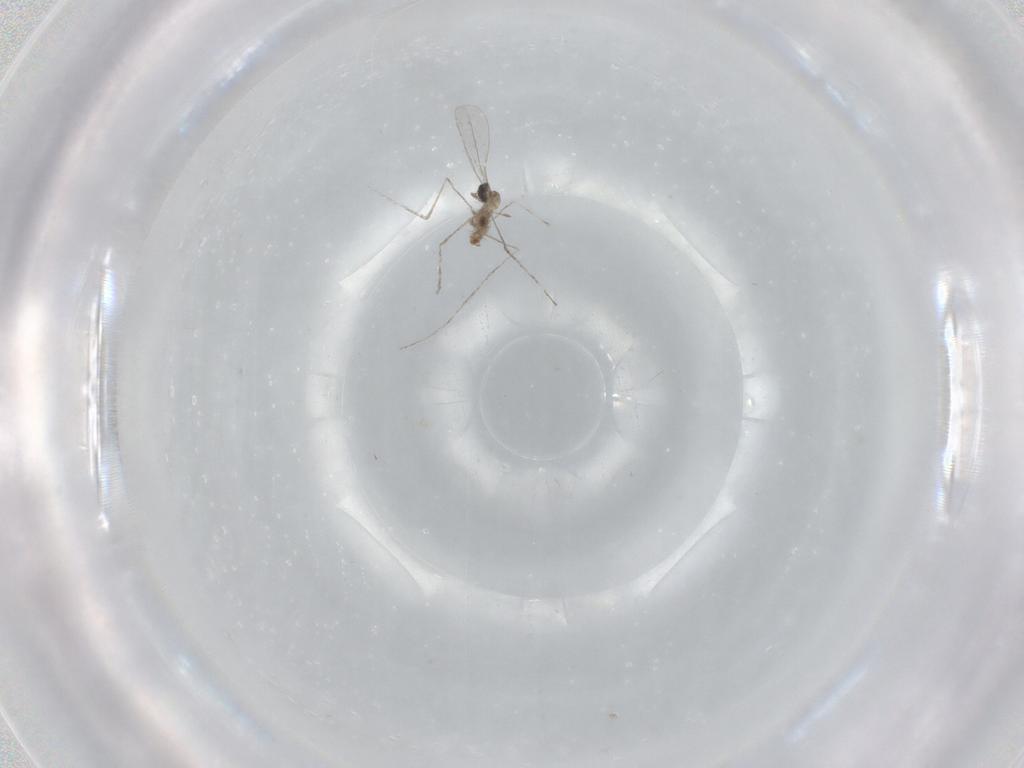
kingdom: Animalia
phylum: Arthropoda
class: Insecta
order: Diptera
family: Cecidomyiidae
